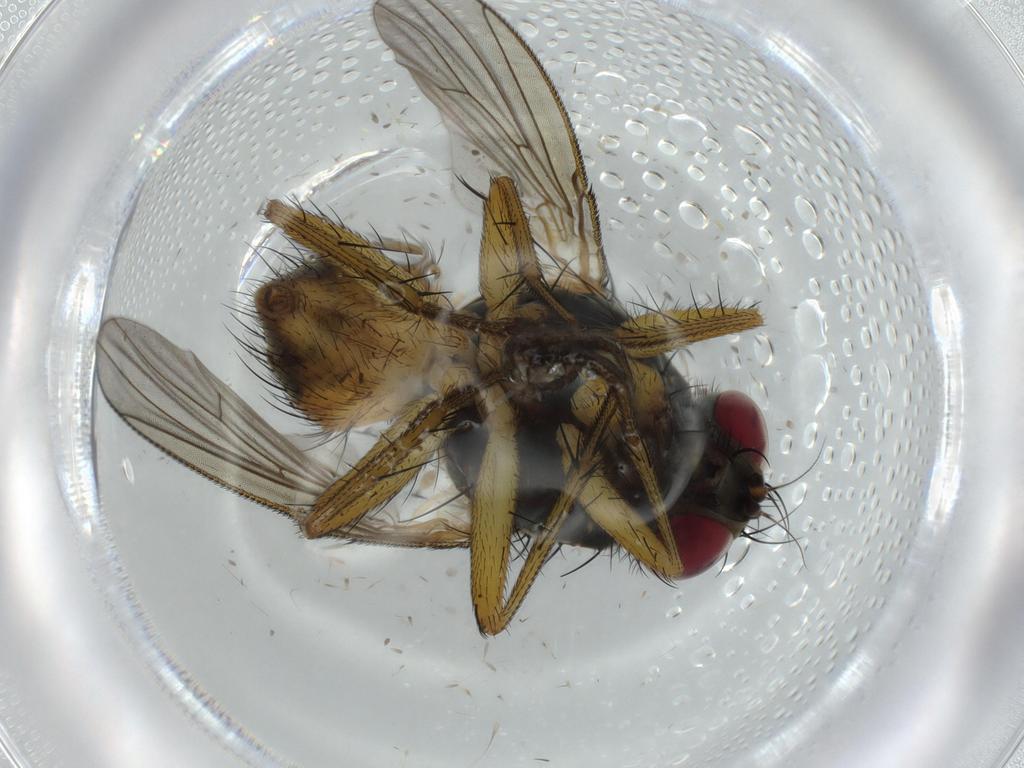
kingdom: Animalia
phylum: Arthropoda
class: Insecta
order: Diptera
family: Muscidae
